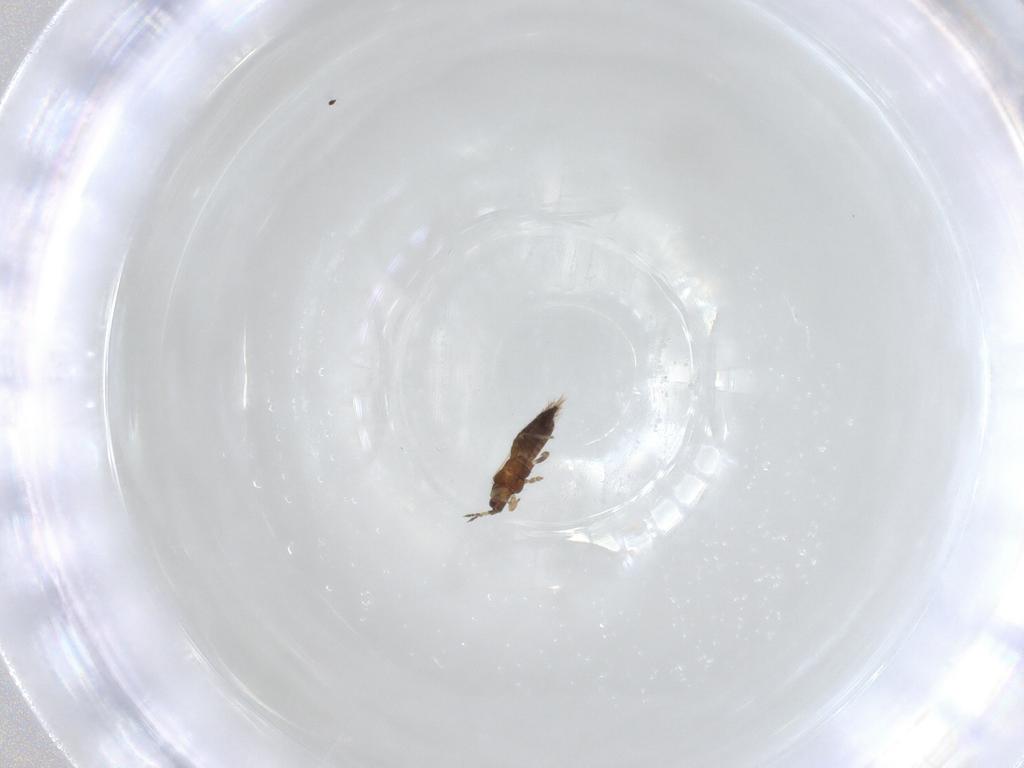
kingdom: Animalia
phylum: Arthropoda
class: Insecta
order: Thysanoptera
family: Thripidae
